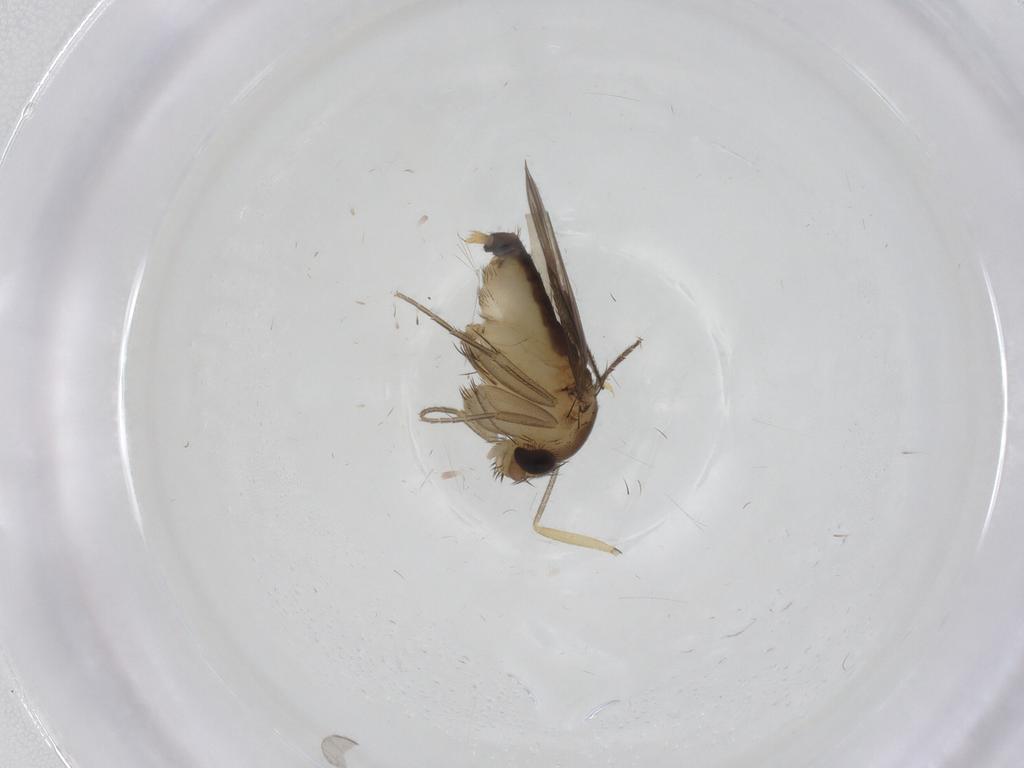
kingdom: Animalia
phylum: Arthropoda
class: Insecta
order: Diptera
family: Phoridae
